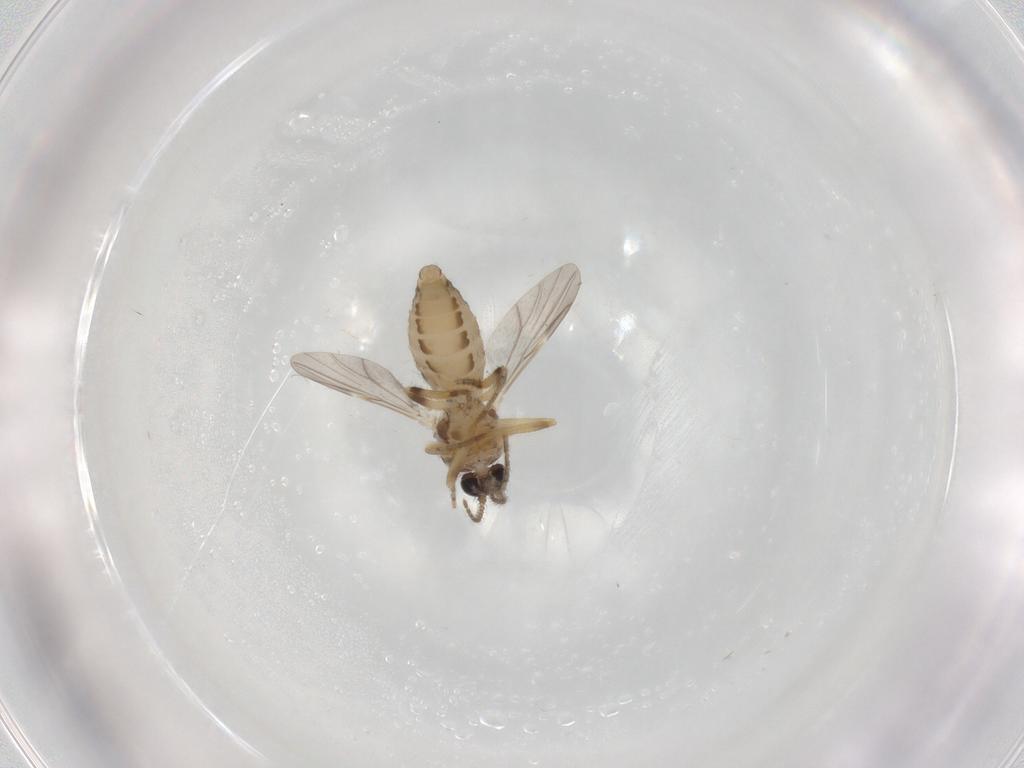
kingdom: Animalia
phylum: Arthropoda
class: Insecta
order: Diptera
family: Ceratopogonidae
